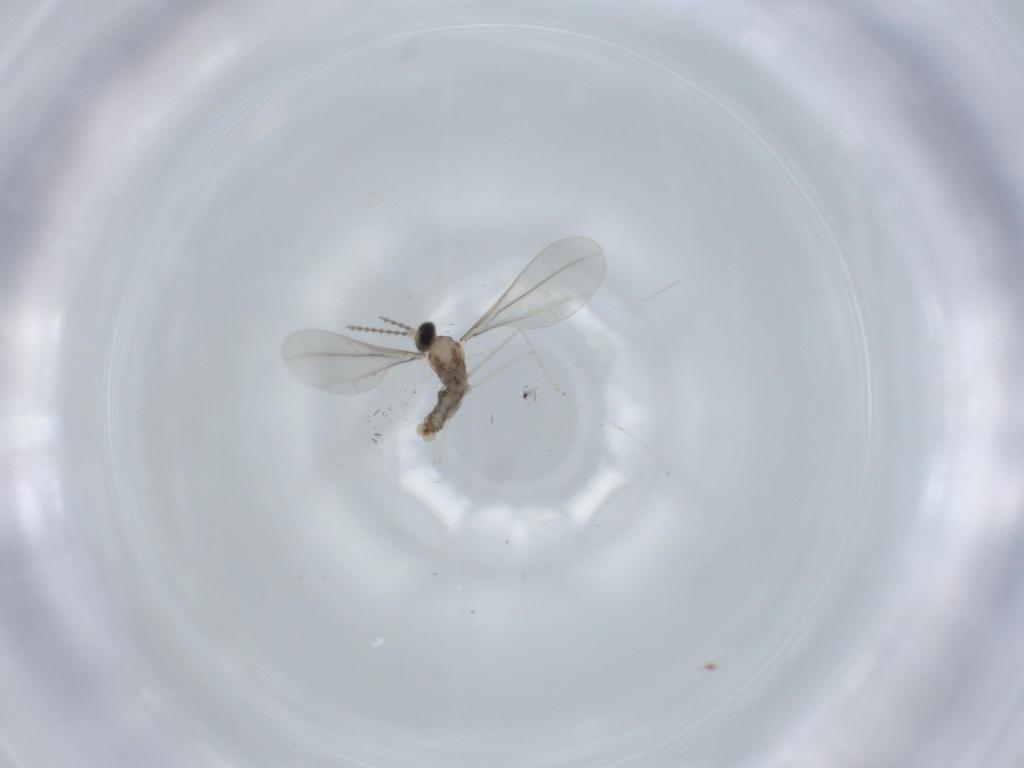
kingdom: Animalia
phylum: Arthropoda
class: Insecta
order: Diptera
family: Cecidomyiidae
